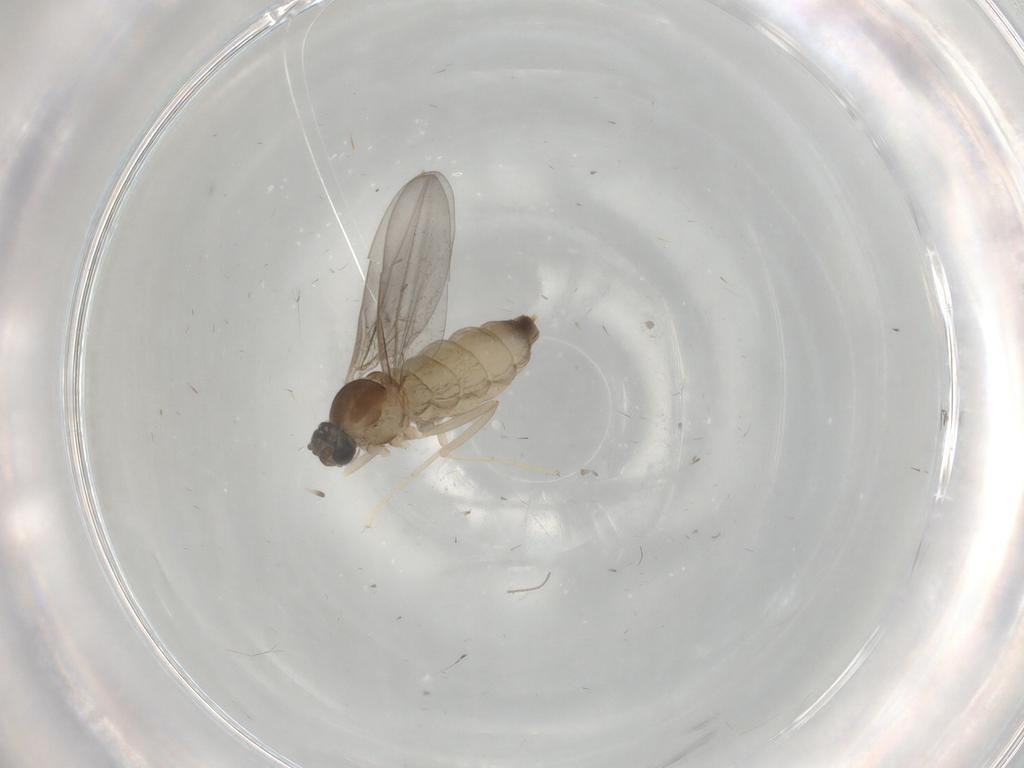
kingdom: Animalia
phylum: Arthropoda
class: Insecta
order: Diptera
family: Cecidomyiidae
